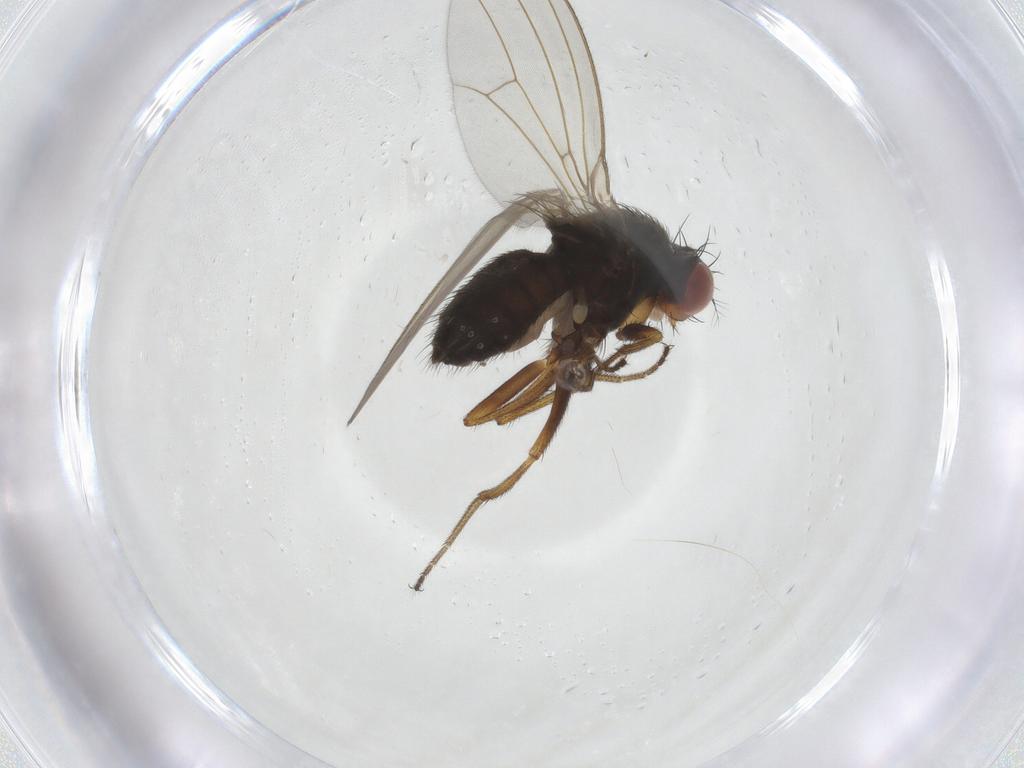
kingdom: Animalia
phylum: Arthropoda
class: Insecta
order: Diptera
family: Drosophilidae
